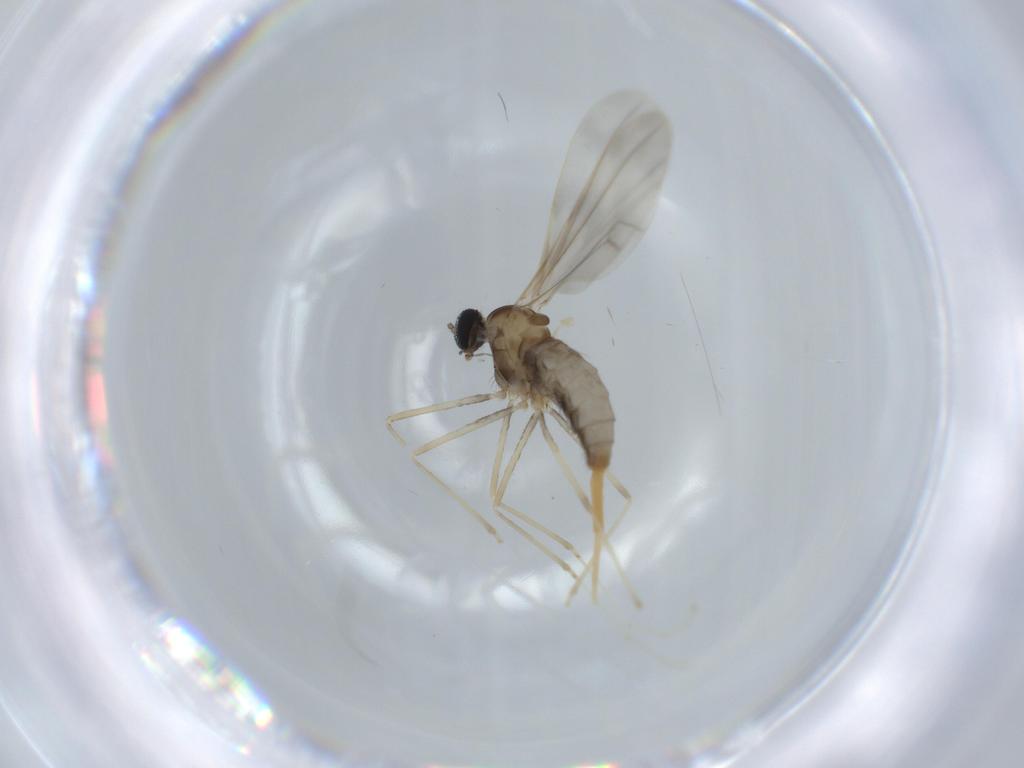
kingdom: Animalia
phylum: Arthropoda
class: Insecta
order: Diptera
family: Cecidomyiidae
